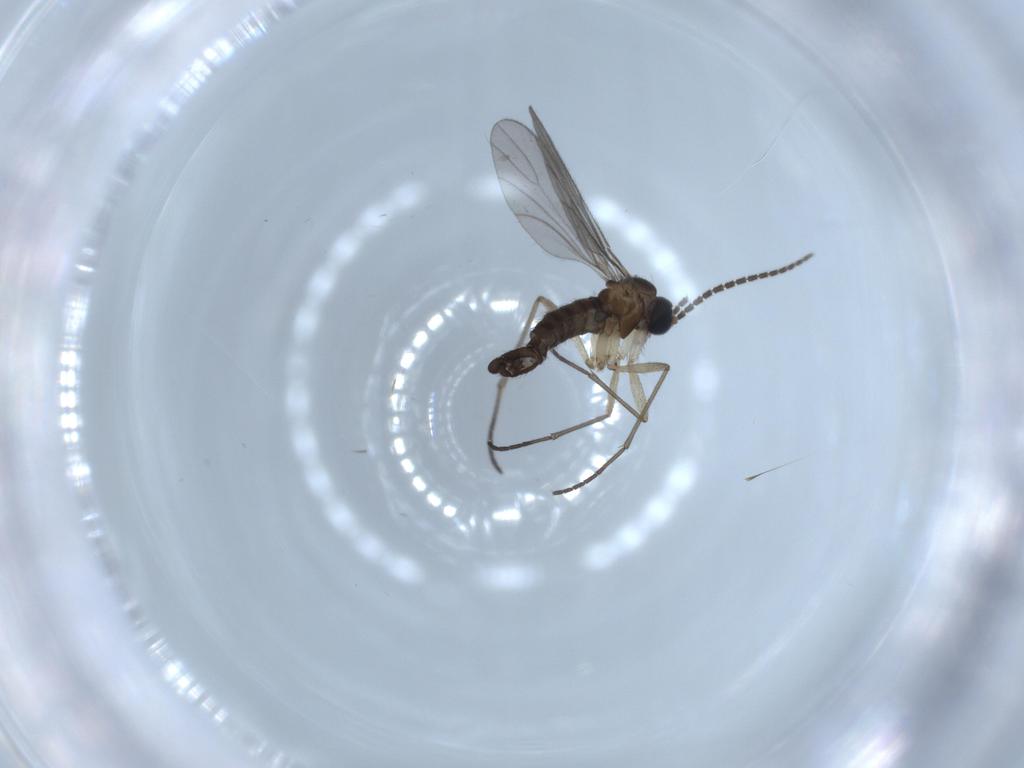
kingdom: Animalia
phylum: Arthropoda
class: Insecta
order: Diptera
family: Sciaridae
